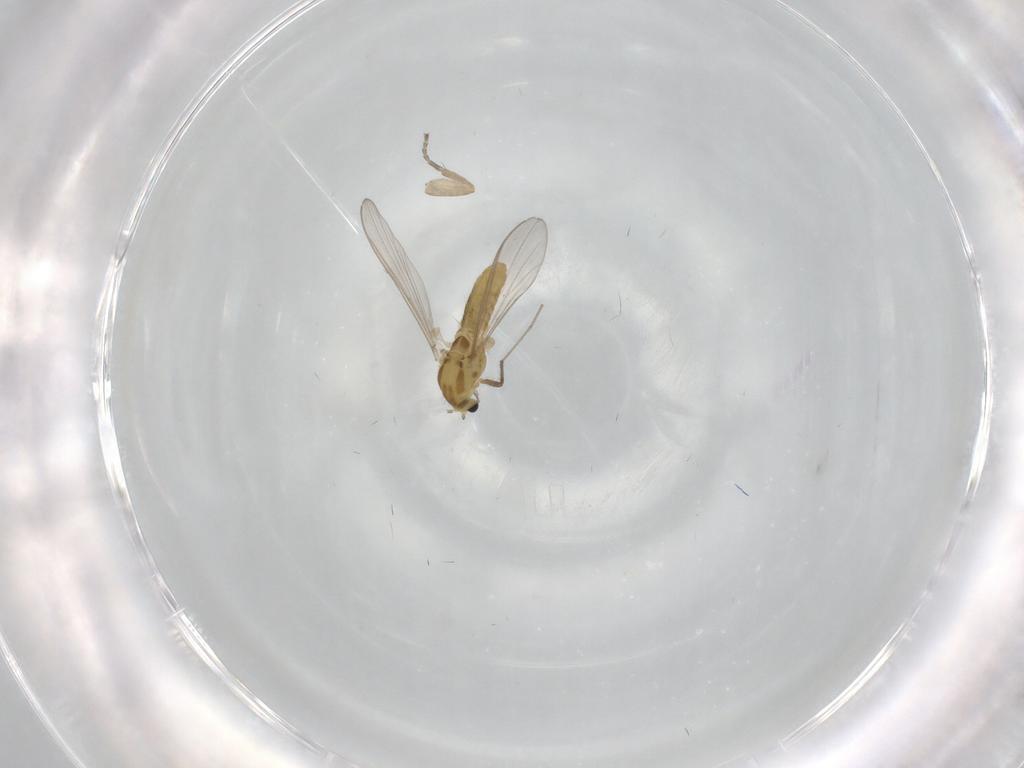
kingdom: Animalia
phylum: Arthropoda
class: Insecta
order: Diptera
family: Chironomidae
